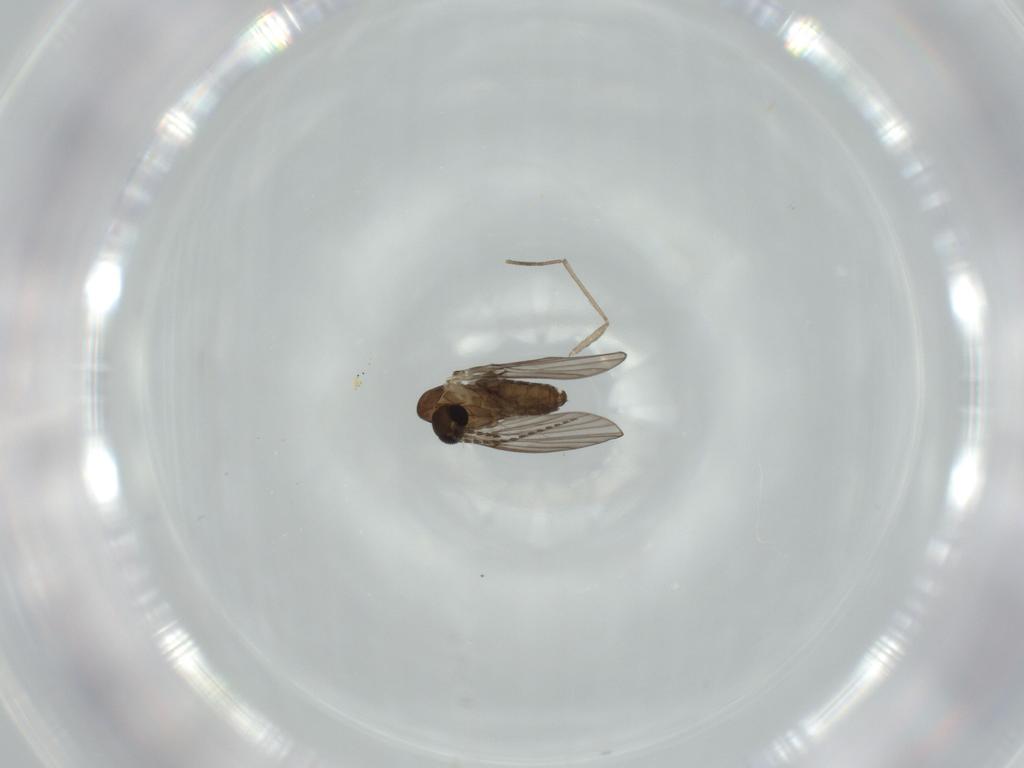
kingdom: Animalia
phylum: Arthropoda
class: Insecta
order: Diptera
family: Psychodidae
